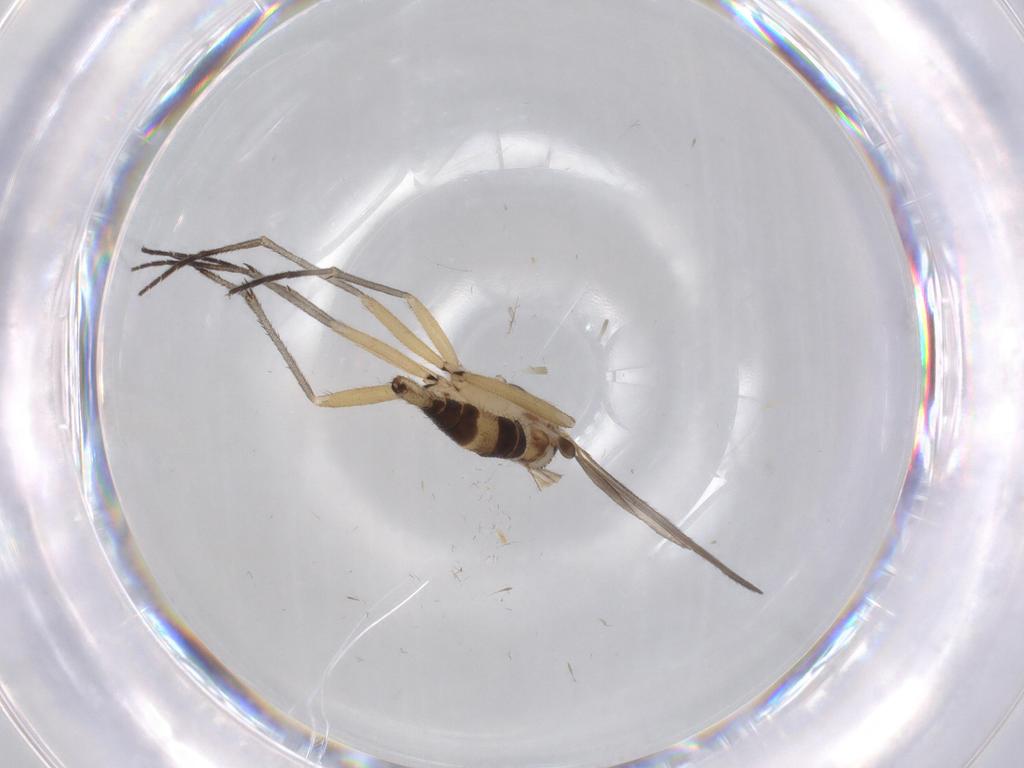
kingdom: Animalia
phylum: Arthropoda
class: Insecta
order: Diptera
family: Sciaridae
